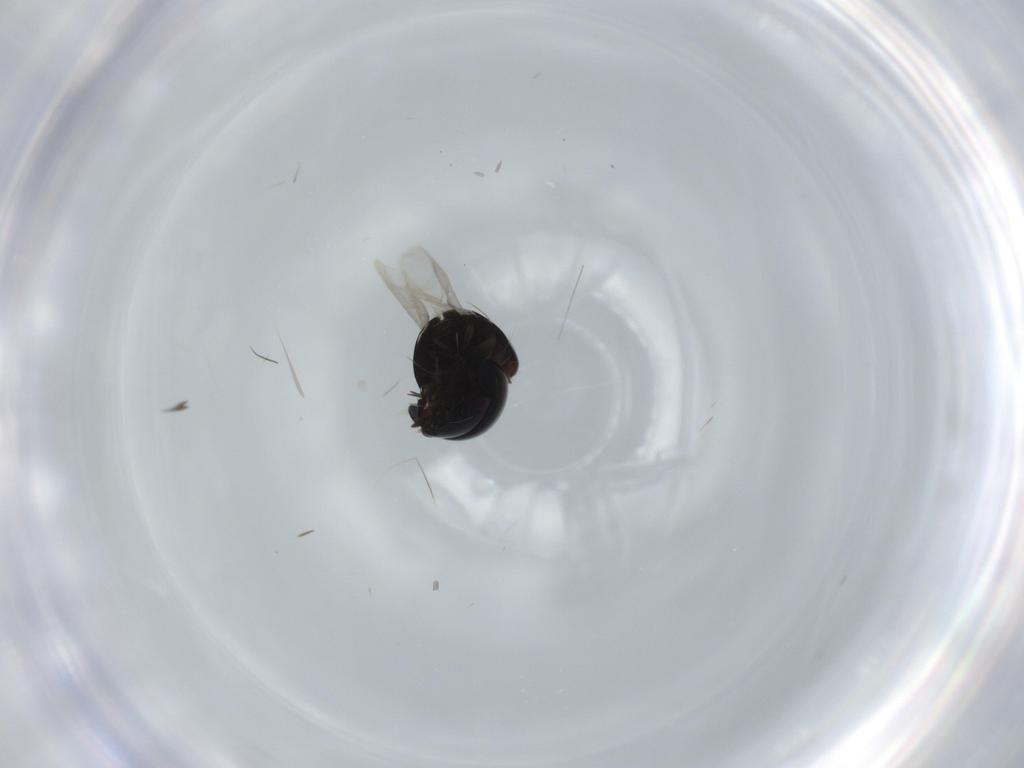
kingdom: Animalia
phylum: Arthropoda
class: Insecta
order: Coleoptera
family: Cybocephalidae
